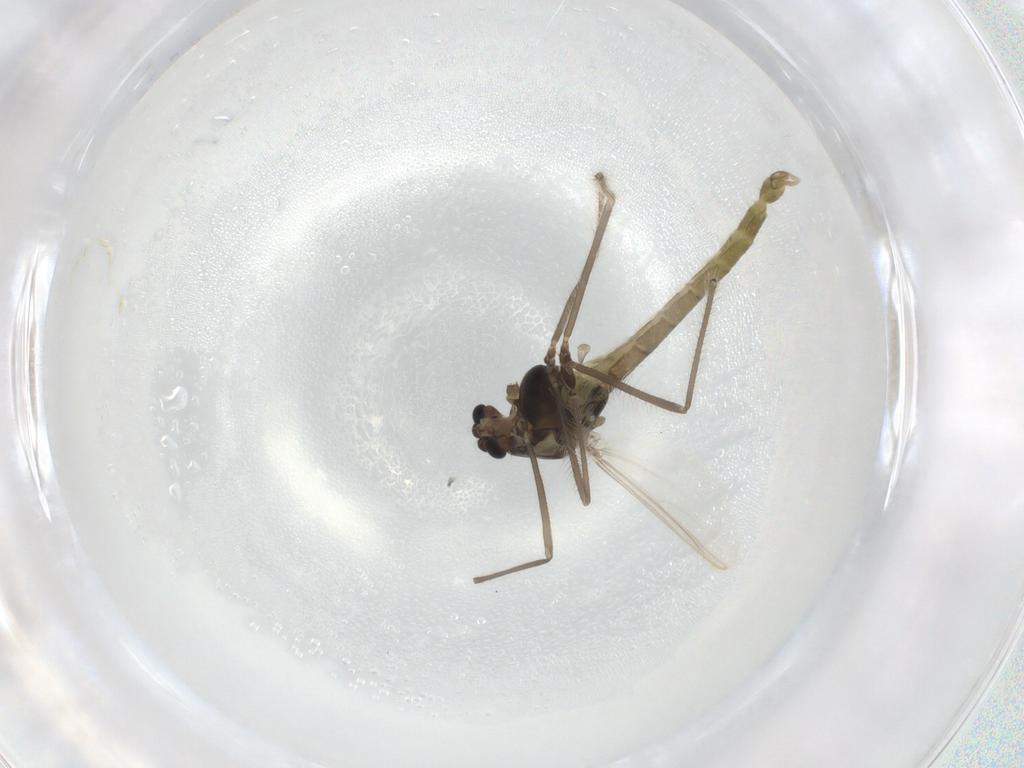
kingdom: Animalia
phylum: Arthropoda
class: Insecta
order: Diptera
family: Chironomidae
